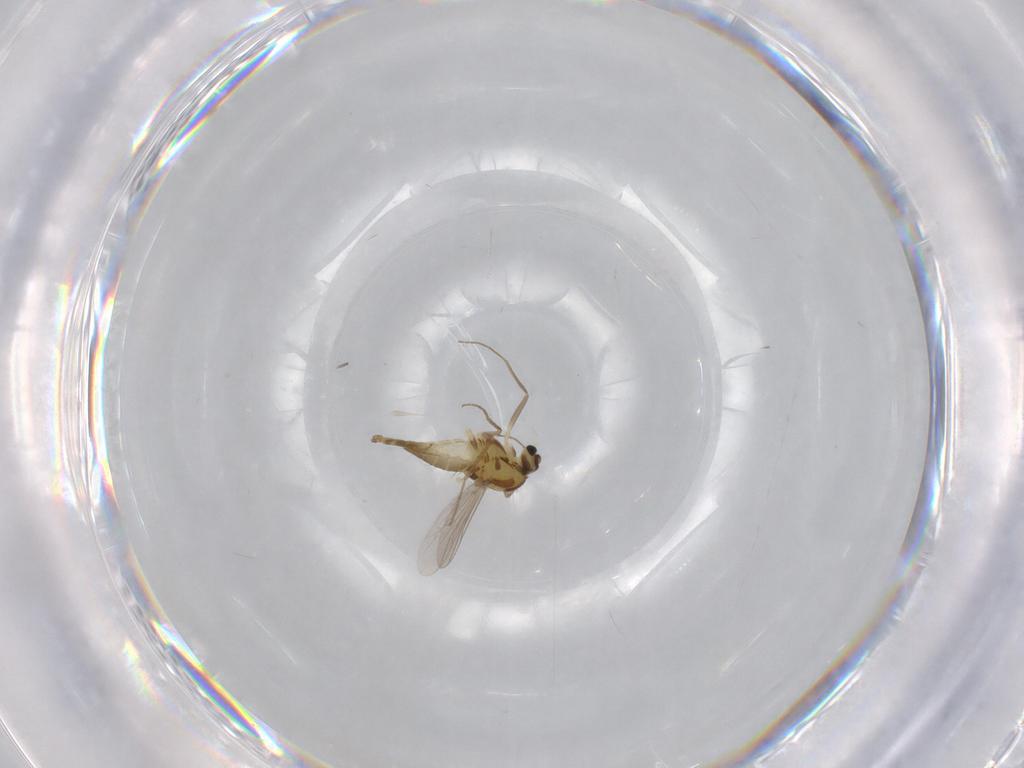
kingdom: Animalia
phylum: Arthropoda
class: Insecta
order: Diptera
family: Chironomidae
